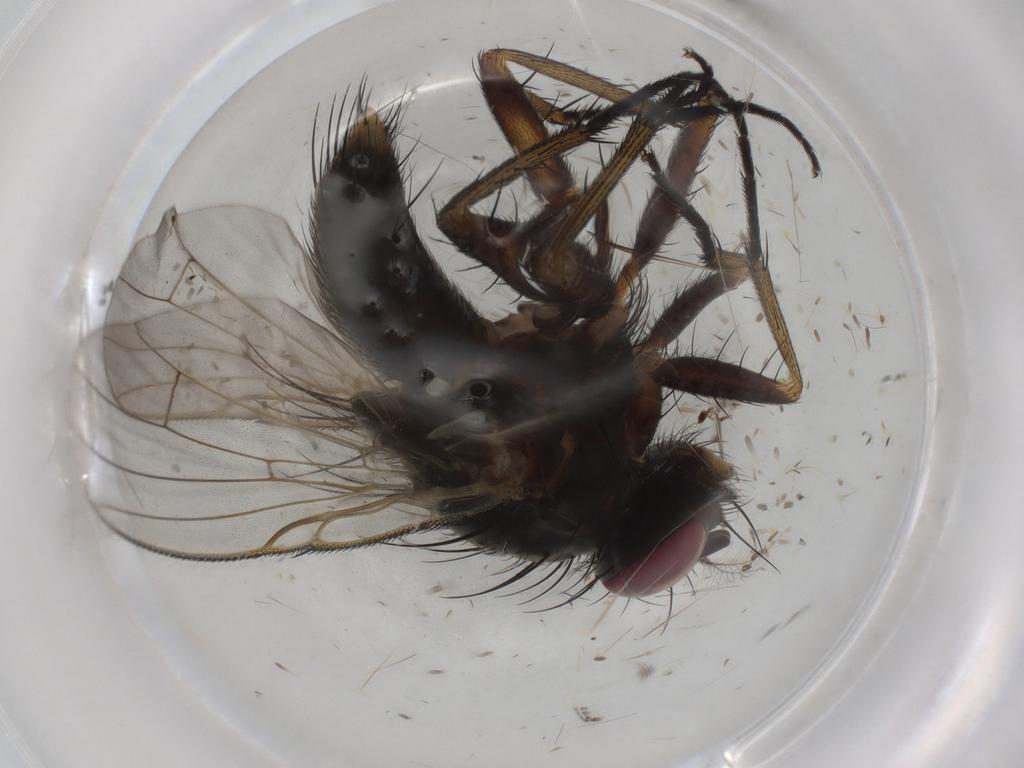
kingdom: Animalia
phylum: Arthropoda
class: Insecta
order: Diptera
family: Muscidae
